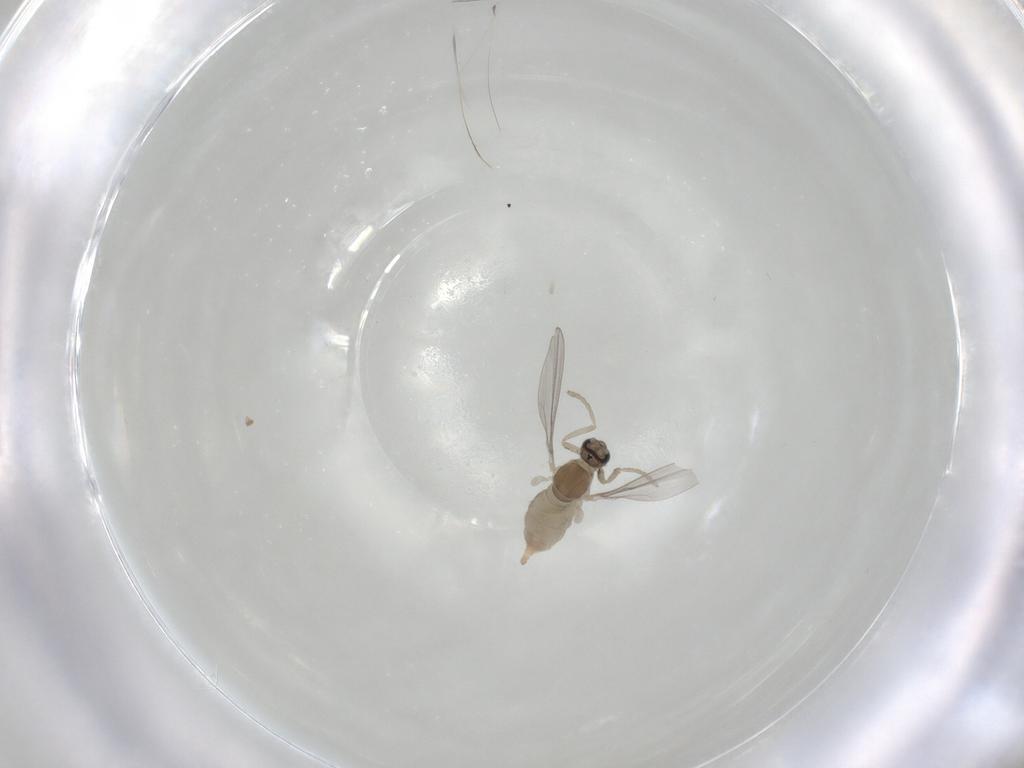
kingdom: Animalia
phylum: Arthropoda
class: Insecta
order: Diptera
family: Cecidomyiidae
